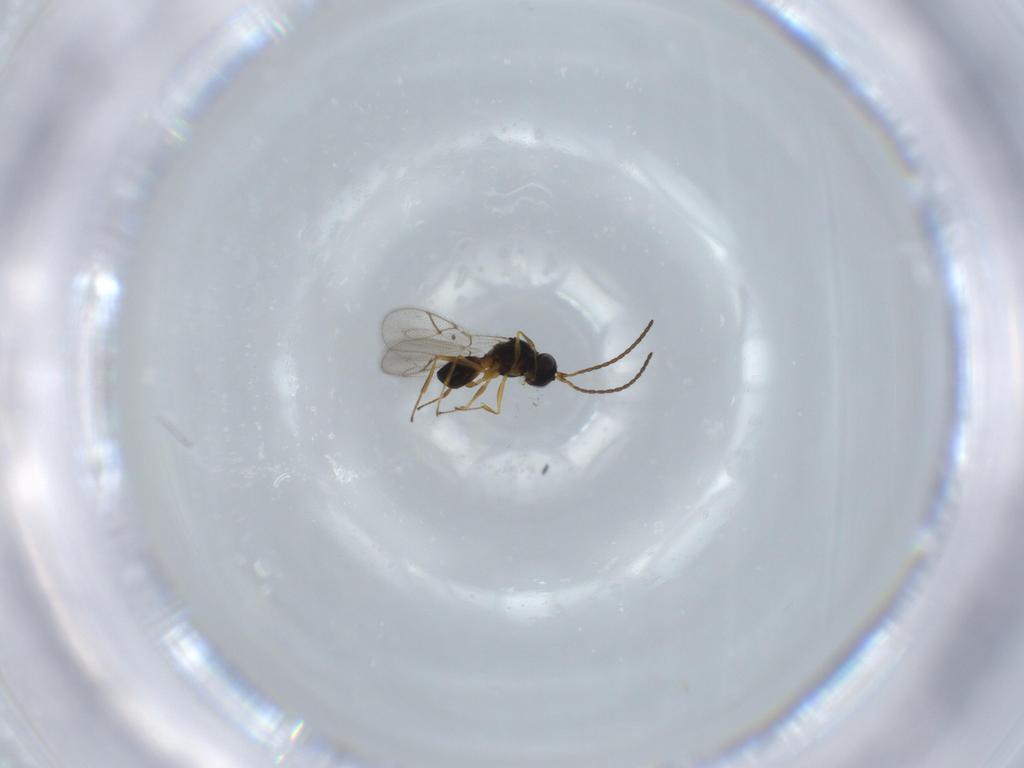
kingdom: Animalia
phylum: Arthropoda
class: Insecta
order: Hymenoptera
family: Figitidae
